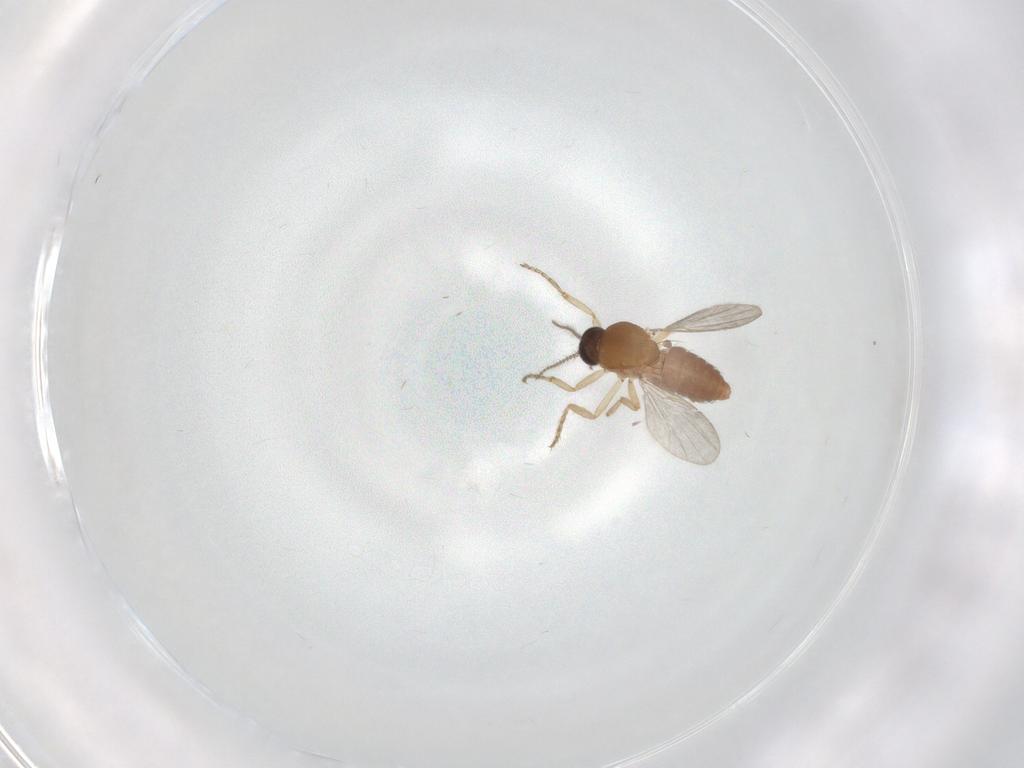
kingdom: Animalia
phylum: Arthropoda
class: Insecta
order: Diptera
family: Ceratopogonidae
